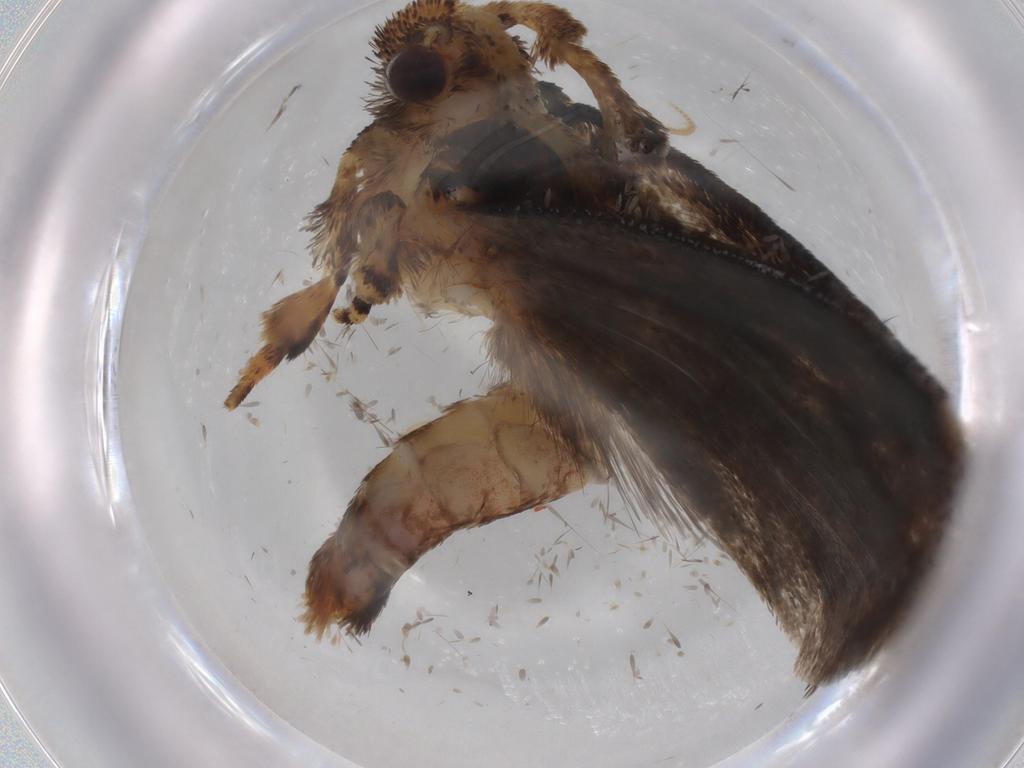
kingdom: Animalia
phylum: Arthropoda
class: Insecta
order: Lepidoptera
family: Tineidae
